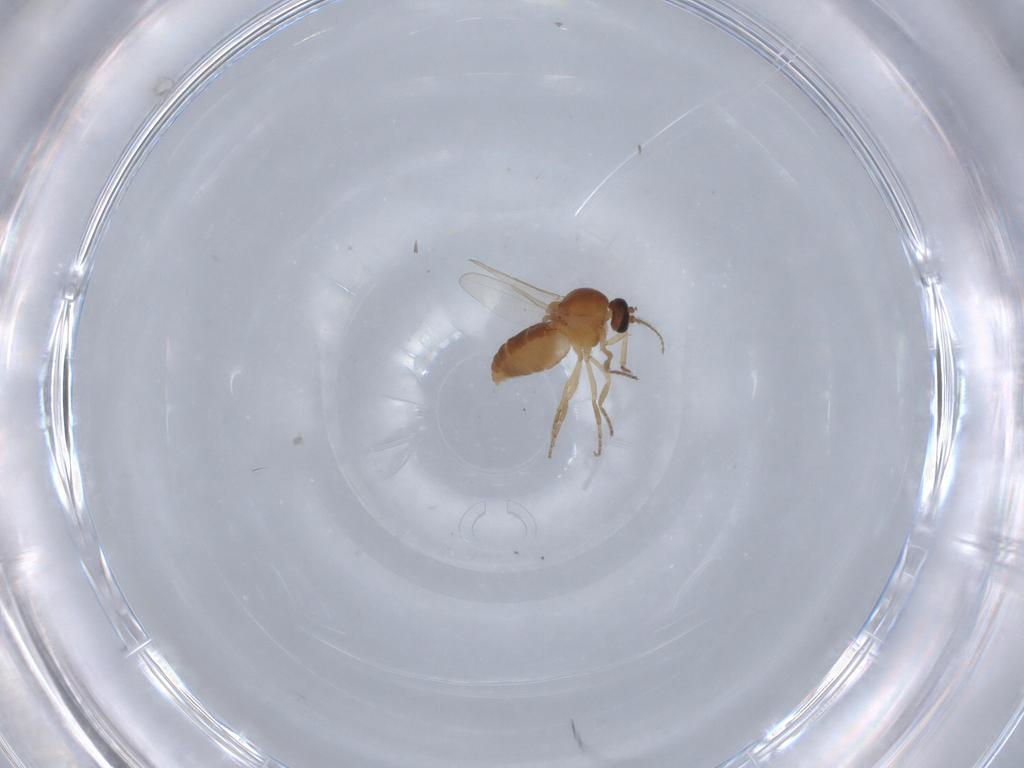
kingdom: Animalia
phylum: Arthropoda
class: Insecta
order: Diptera
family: Ceratopogonidae
